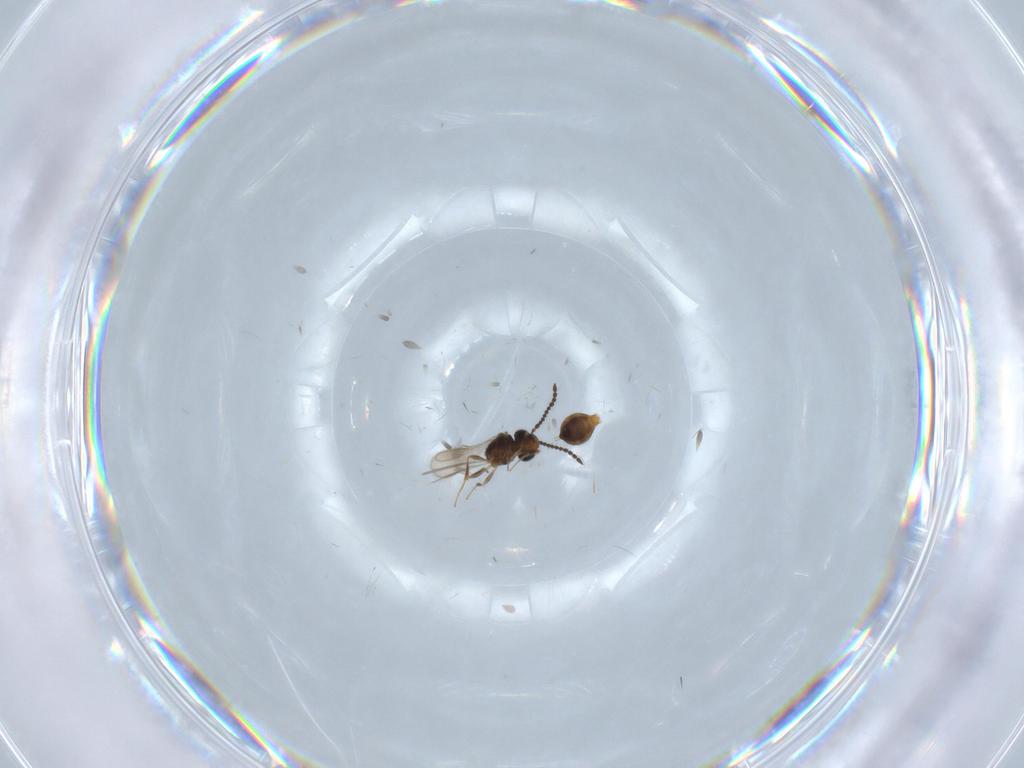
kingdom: Animalia
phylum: Arthropoda
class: Insecta
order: Hymenoptera
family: Scelionidae
